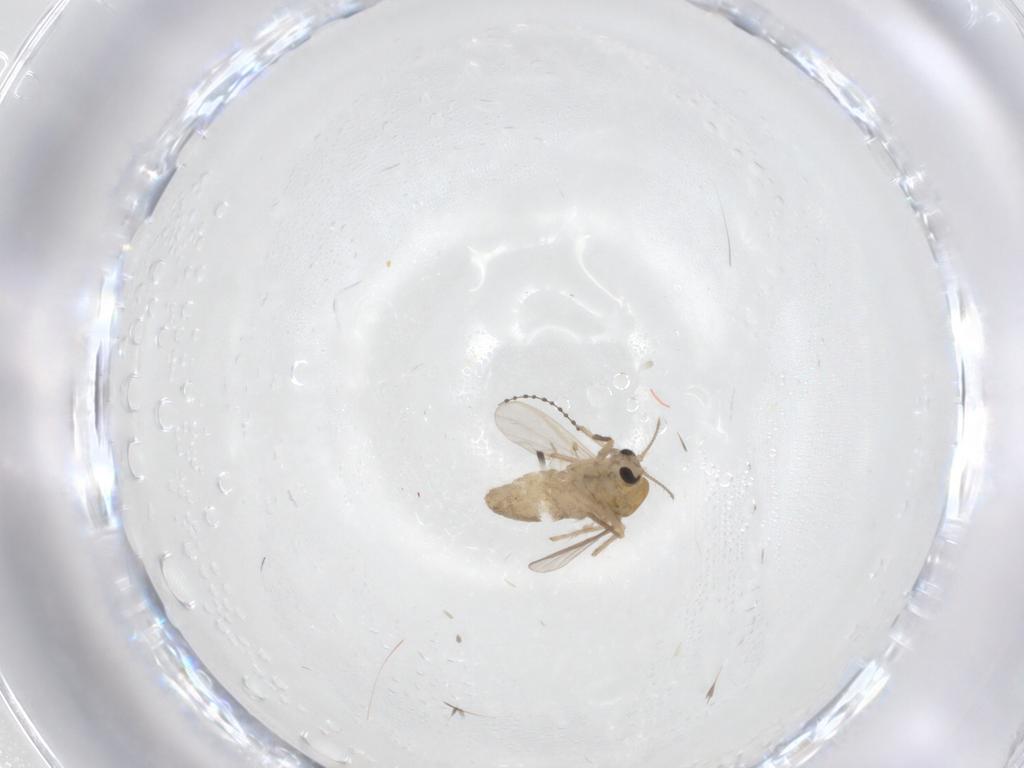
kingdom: Animalia
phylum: Arthropoda
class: Insecta
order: Diptera
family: Chironomidae
